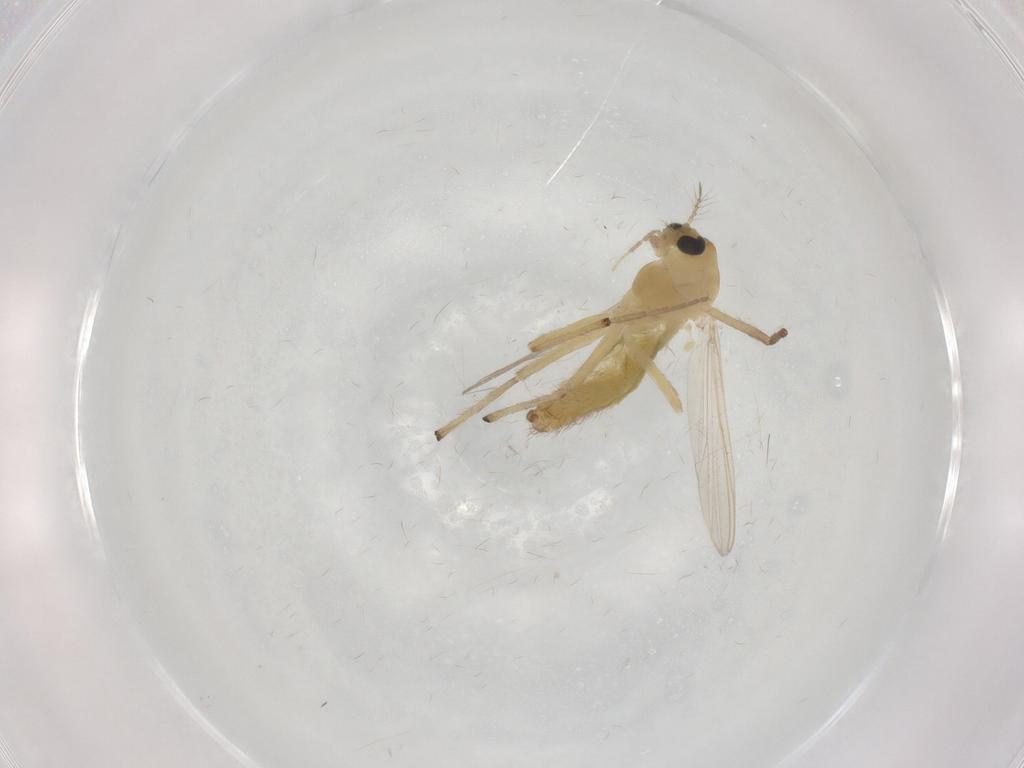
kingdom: Animalia
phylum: Arthropoda
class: Insecta
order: Diptera
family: Chironomidae
